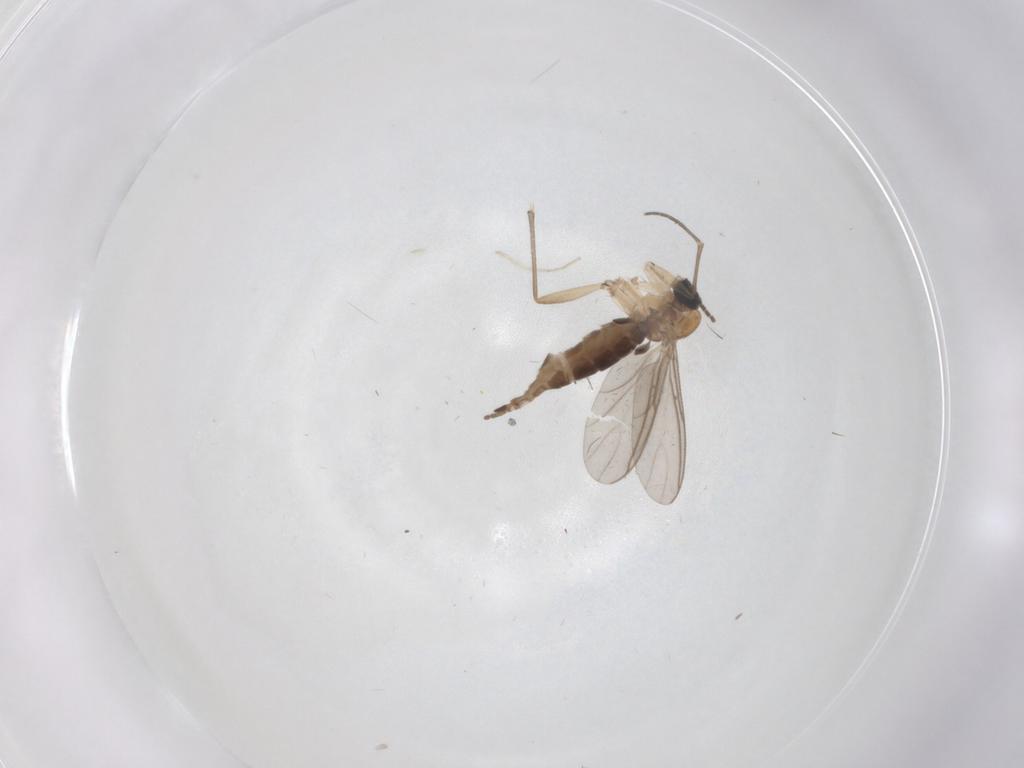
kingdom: Animalia
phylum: Arthropoda
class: Insecta
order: Diptera
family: Sciaridae
